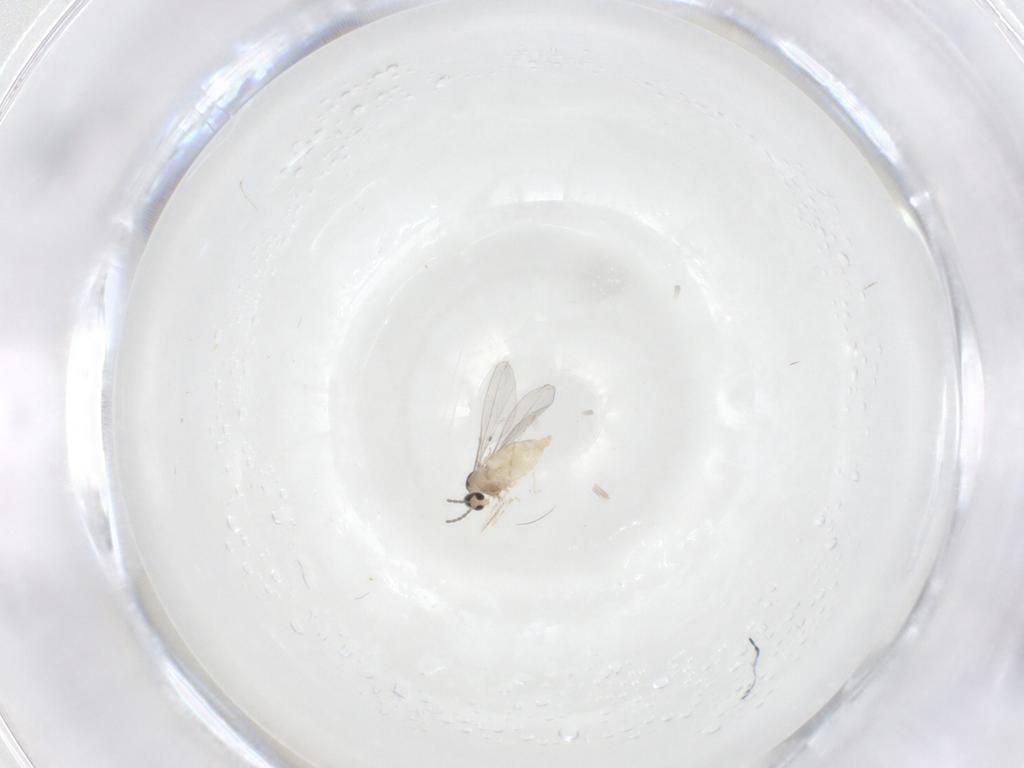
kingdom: Animalia
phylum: Arthropoda
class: Insecta
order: Diptera
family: Cecidomyiidae
